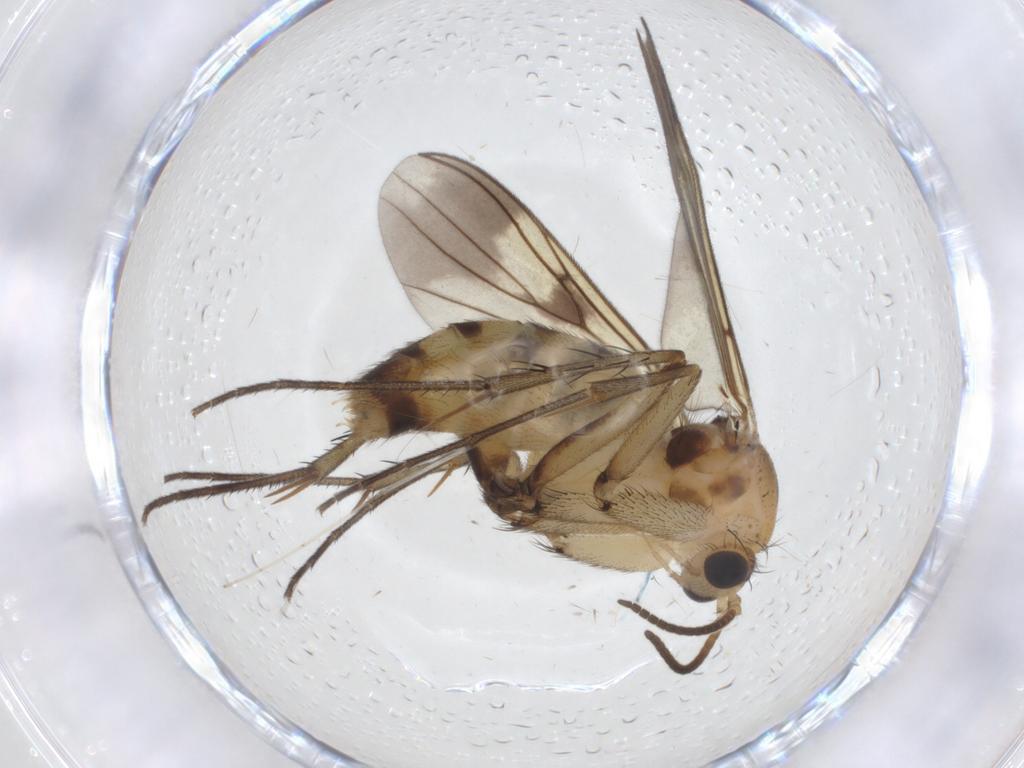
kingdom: Animalia
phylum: Arthropoda
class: Insecta
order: Diptera
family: Mycetophilidae
